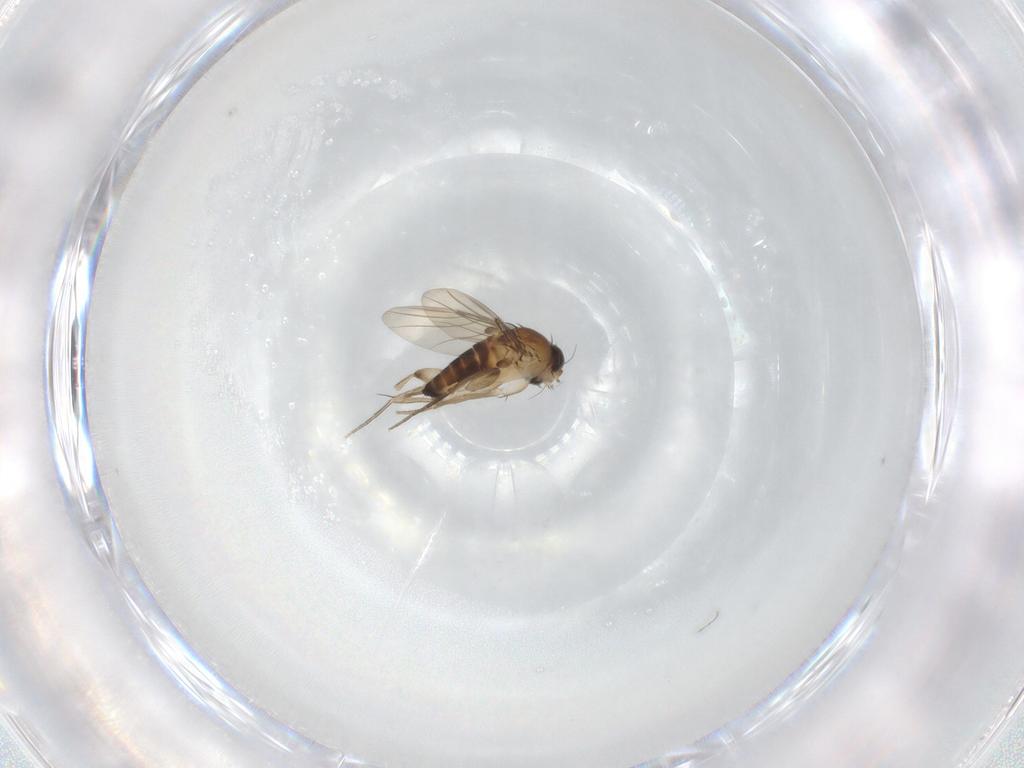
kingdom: Animalia
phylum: Arthropoda
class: Insecta
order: Diptera
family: Phoridae
